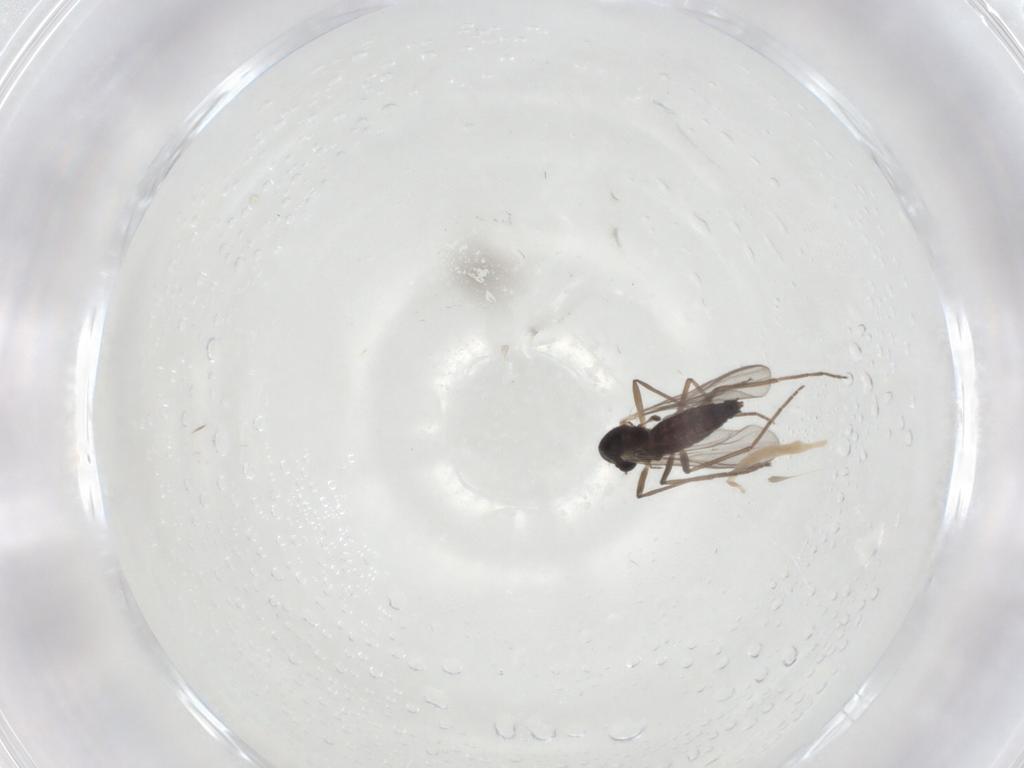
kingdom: Animalia
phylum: Arthropoda
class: Insecta
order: Diptera
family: Chironomidae
